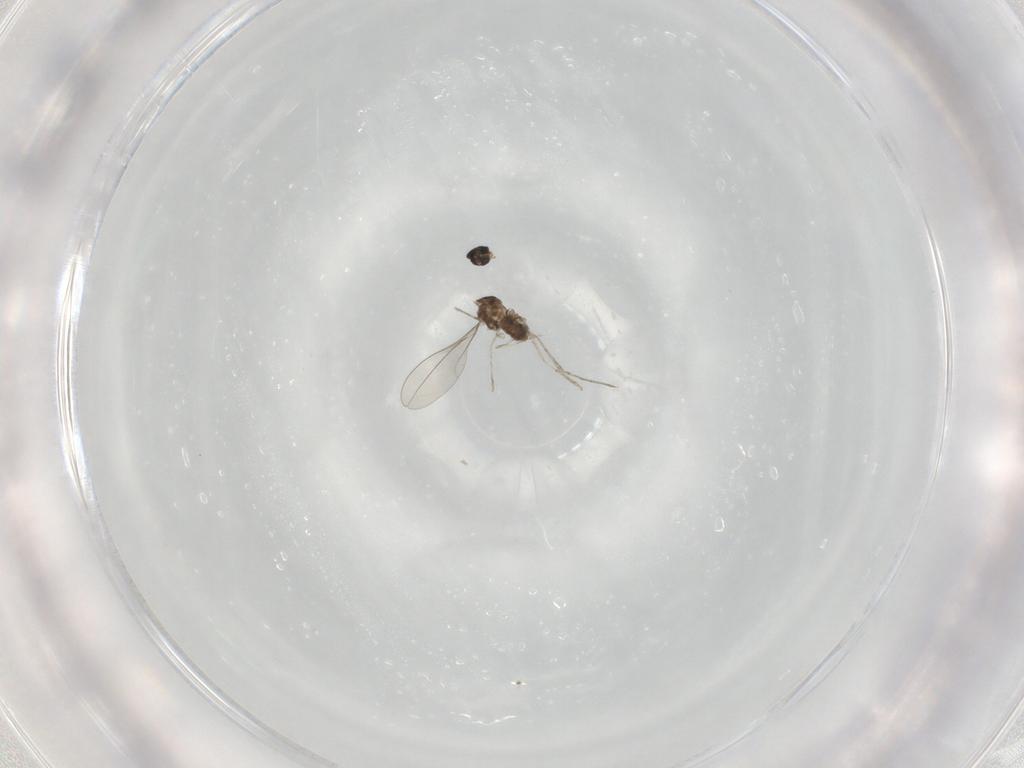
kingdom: Animalia
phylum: Arthropoda
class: Insecta
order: Diptera
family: Cecidomyiidae
